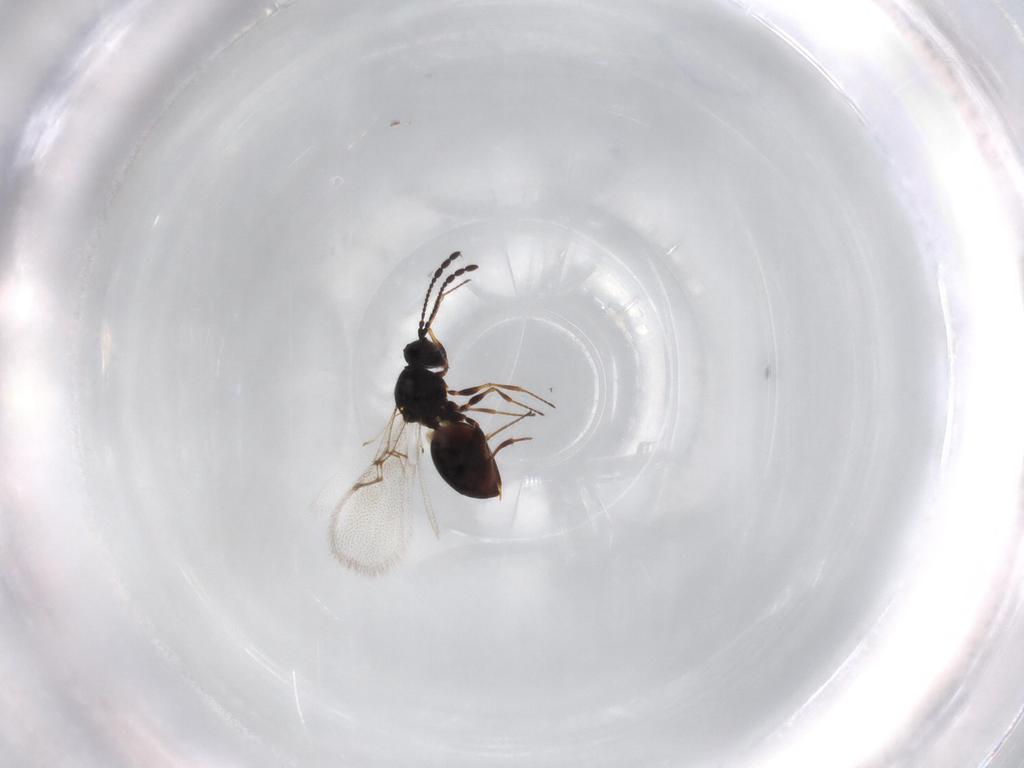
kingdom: Animalia
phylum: Arthropoda
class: Insecta
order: Hymenoptera
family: Figitidae
